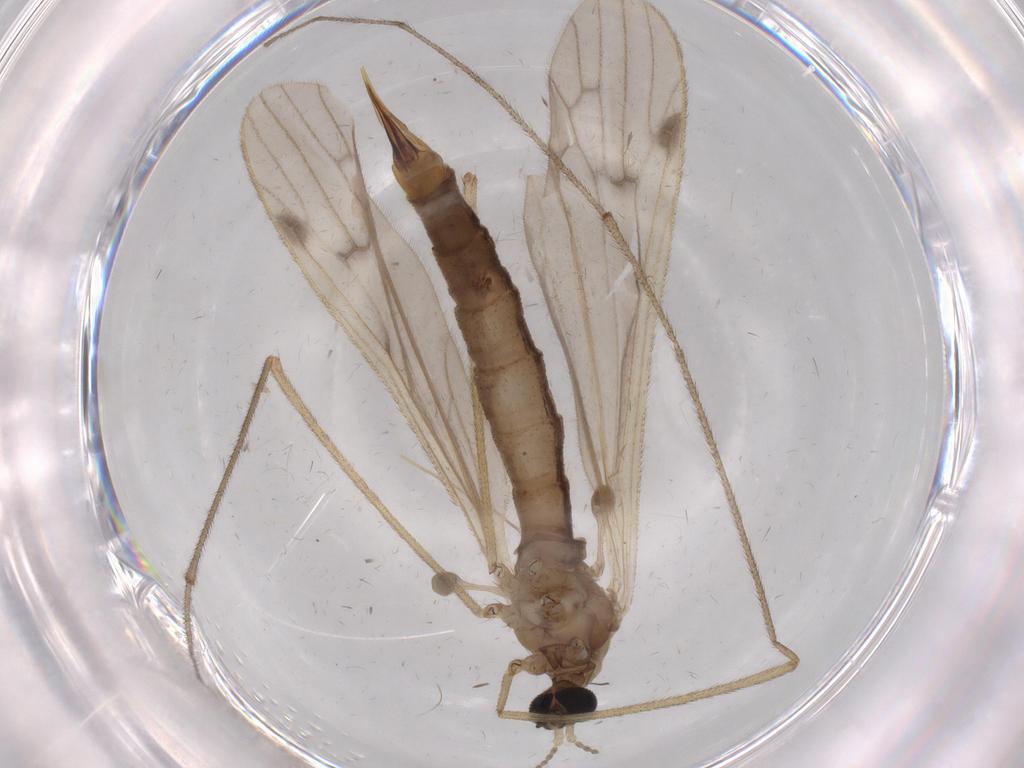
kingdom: Animalia
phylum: Arthropoda
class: Insecta
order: Diptera
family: Limoniidae
